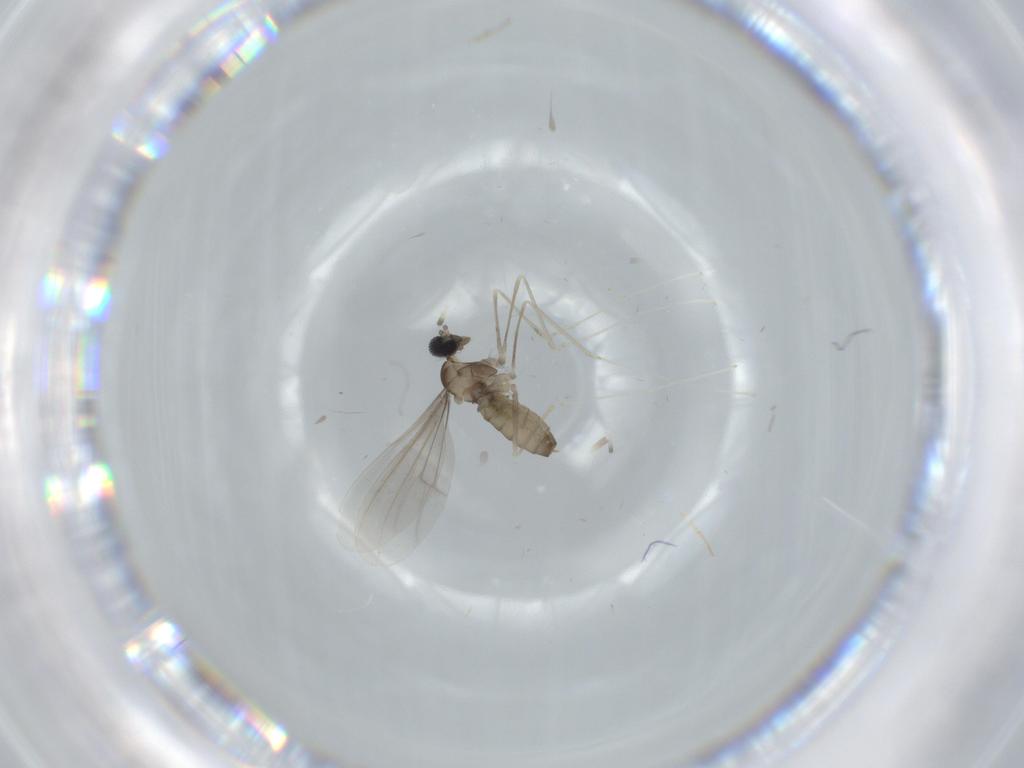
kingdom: Animalia
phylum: Arthropoda
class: Insecta
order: Diptera
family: Cecidomyiidae
